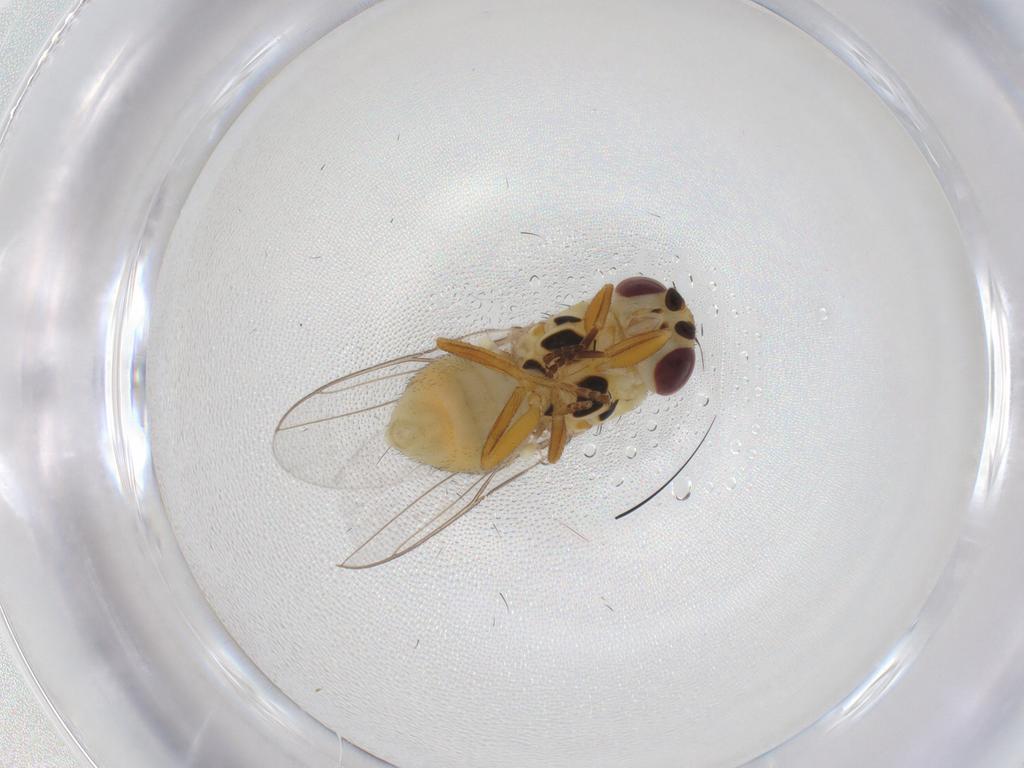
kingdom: Animalia
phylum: Arthropoda
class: Insecta
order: Diptera
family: Chloropidae
